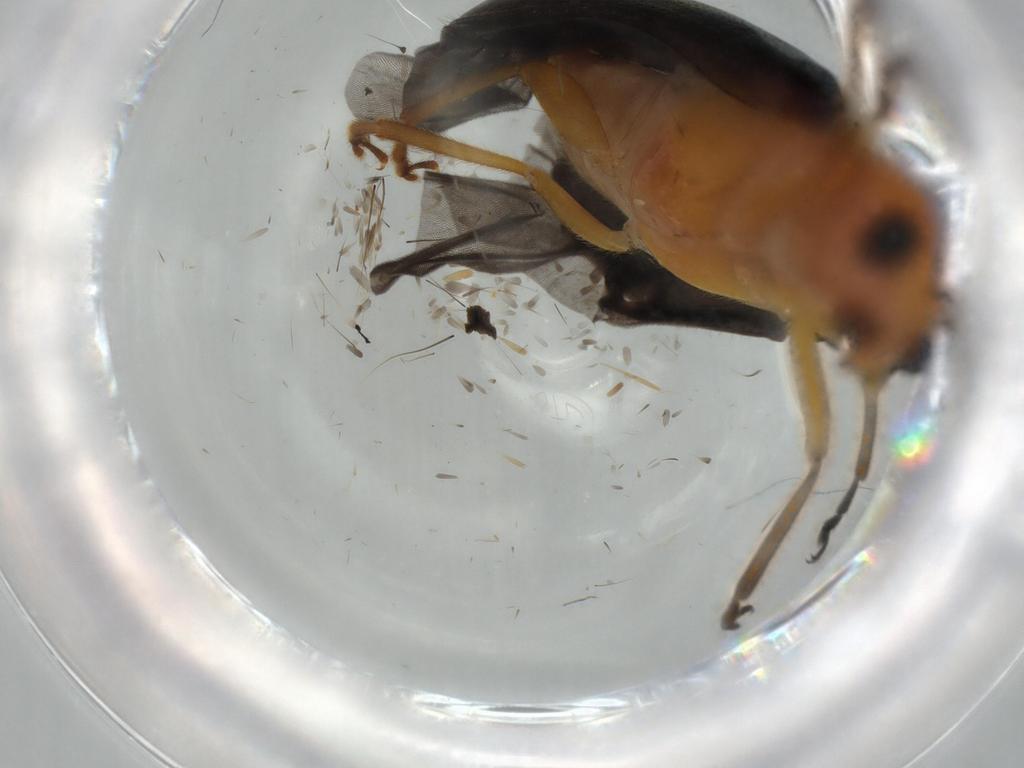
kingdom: Animalia
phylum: Arthropoda
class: Insecta
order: Coleoptera
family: Chrysomelidae
